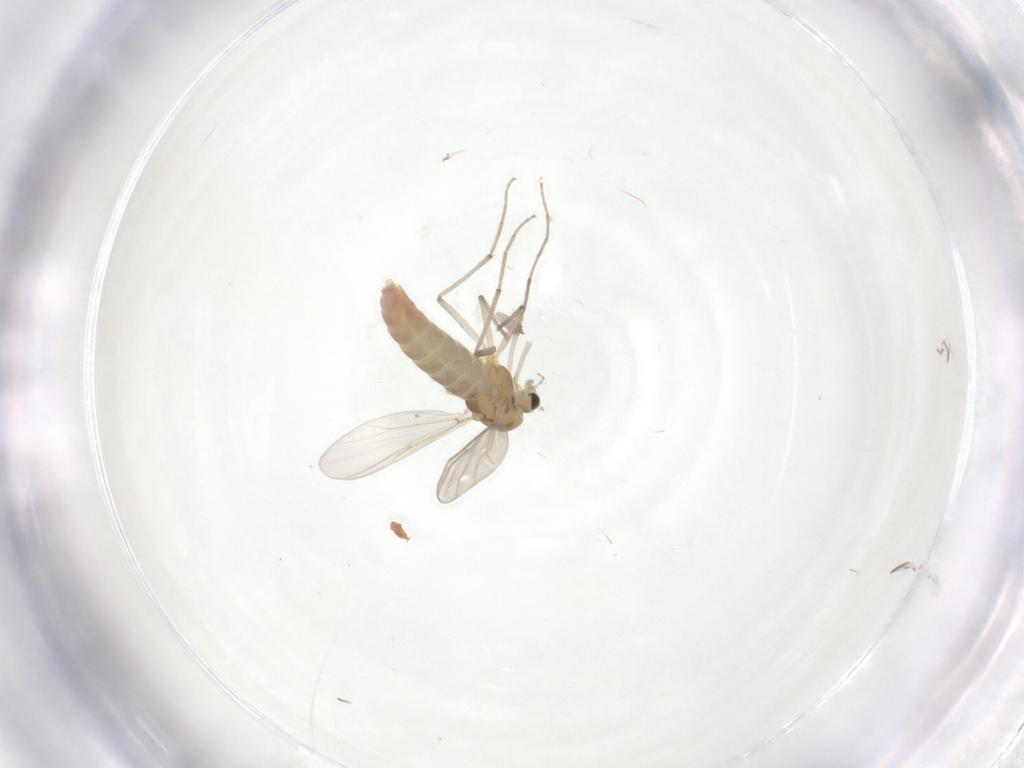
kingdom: Animalia
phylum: Arthropoda
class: Insecta
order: Diptera
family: Chironomidae
